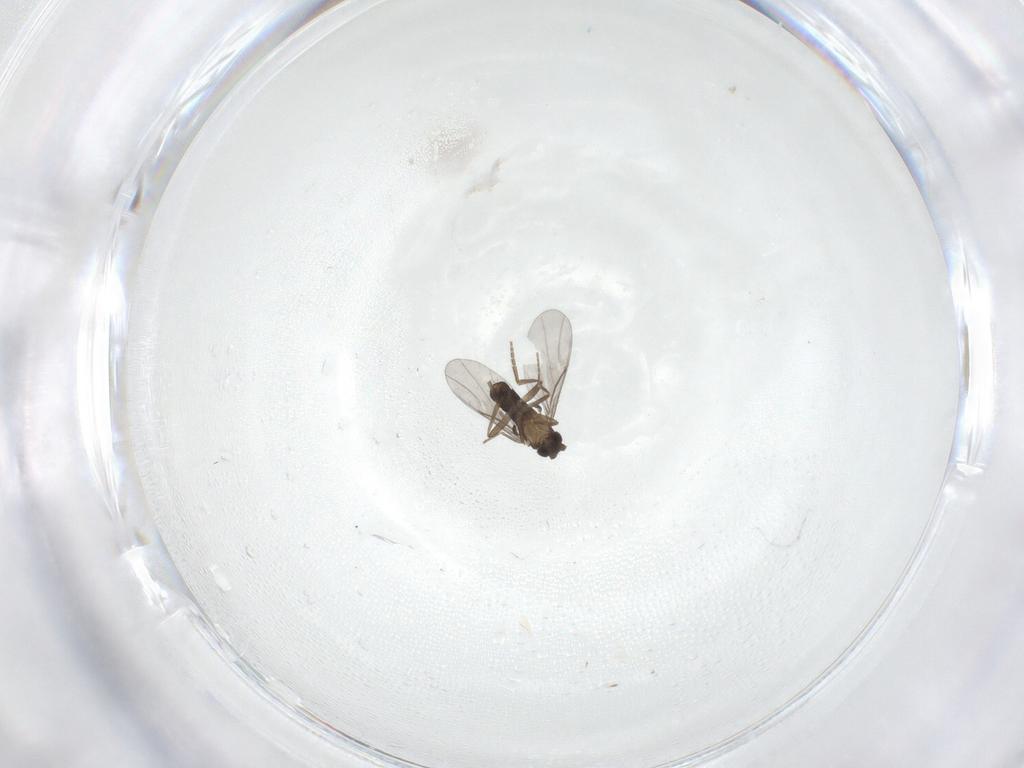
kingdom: Animalia
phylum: Arthropoda
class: Insecta
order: Diptera
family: Phoridae
